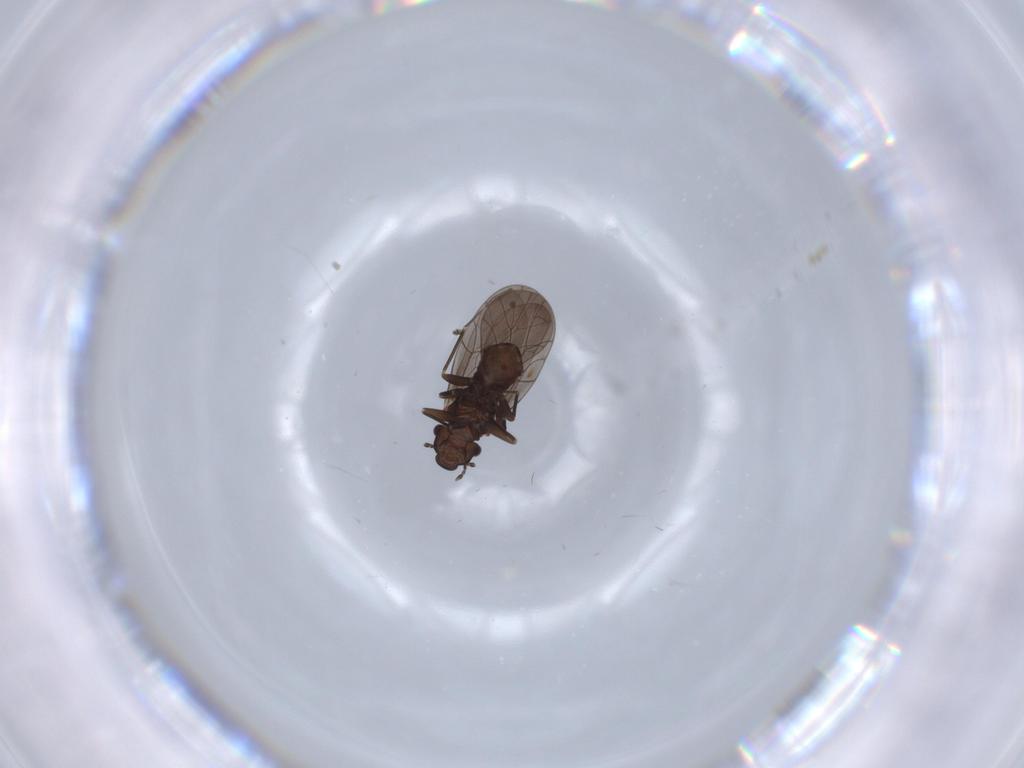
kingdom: Animalia
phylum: Arthropoda
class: Insecta
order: Psocodea
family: Lepidopsocidae
